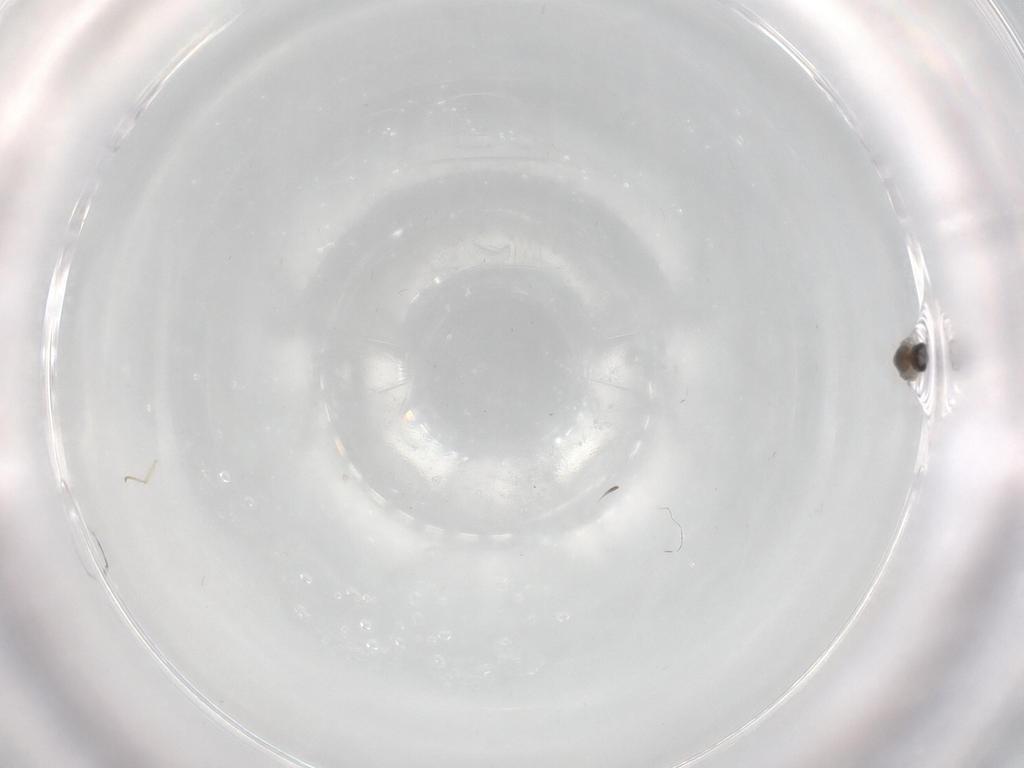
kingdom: Animalia
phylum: Arthropoda
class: Insecta
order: Diptera
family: Cecidomyiidae
